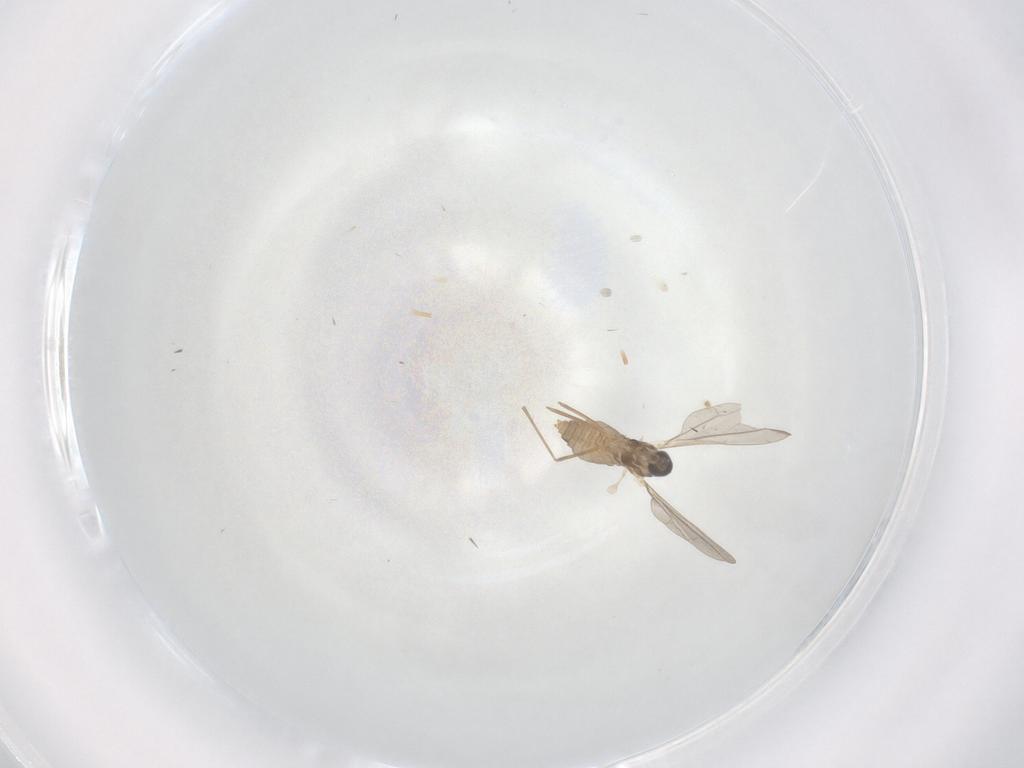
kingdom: Animalia
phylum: Arthropoda
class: Insecta
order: Diptera
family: Cecidomyiidae
